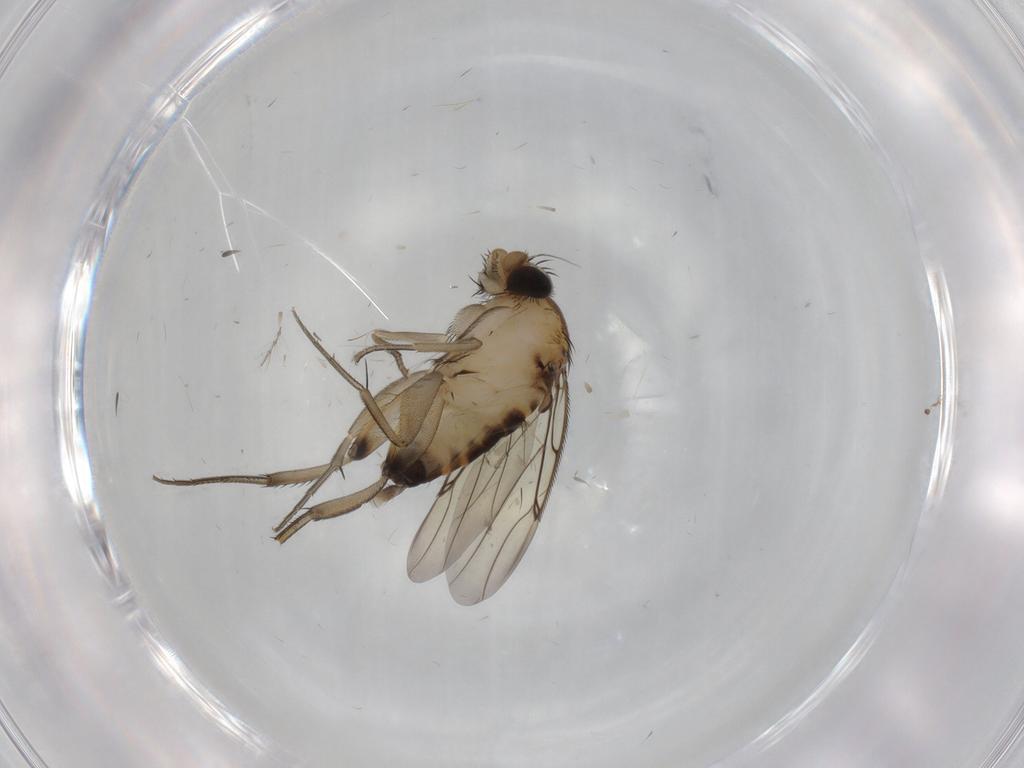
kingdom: Animalia
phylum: Arthropoda
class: Insecta
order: Diptera
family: Phoridae
